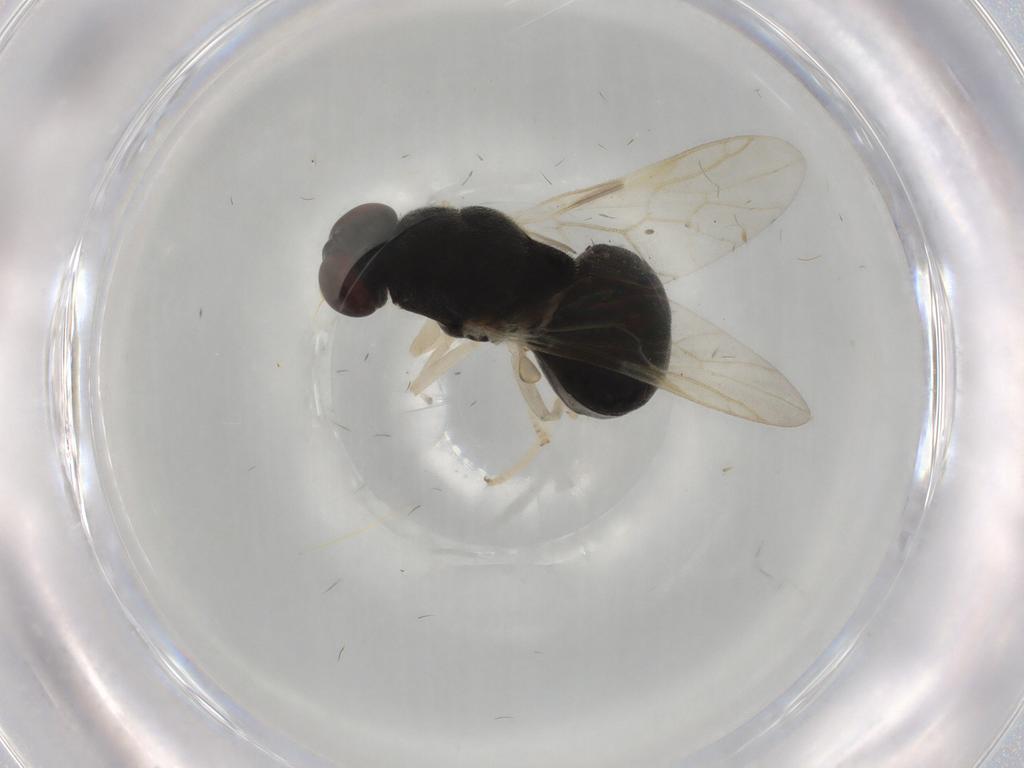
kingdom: Animalia
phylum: Arthropoda
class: Insecta
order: Diptera
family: Stratiomyidae
